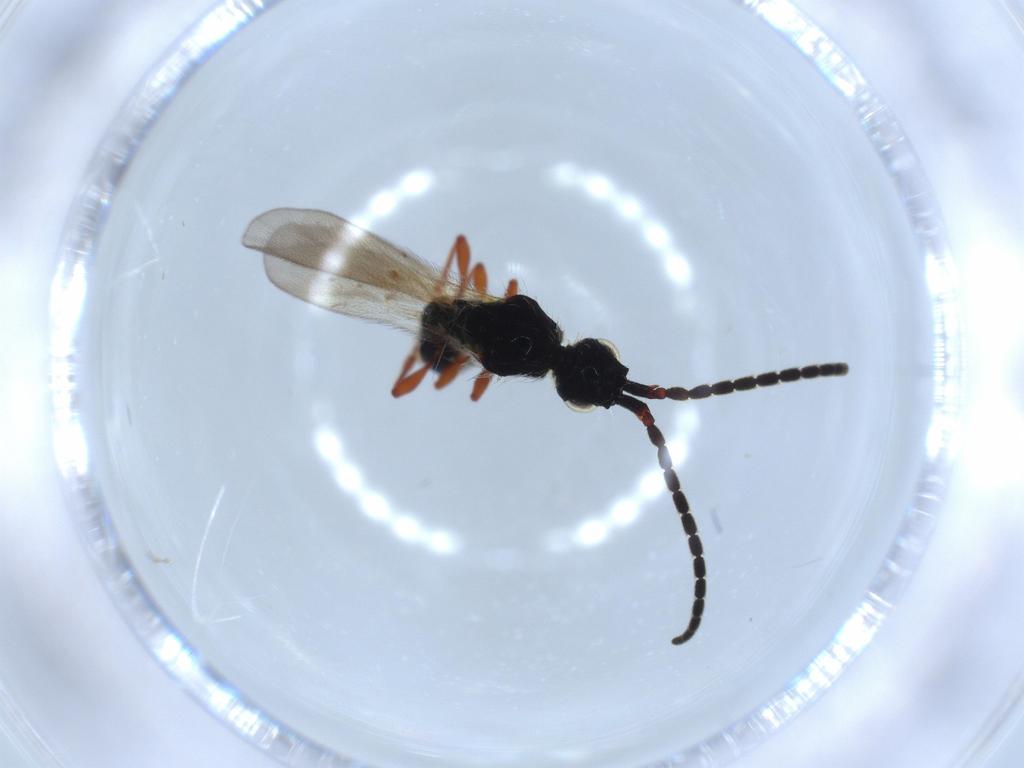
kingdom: Animalia
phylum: Arthropoda
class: Insecta
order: Hymenoptera
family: Diapriidae
